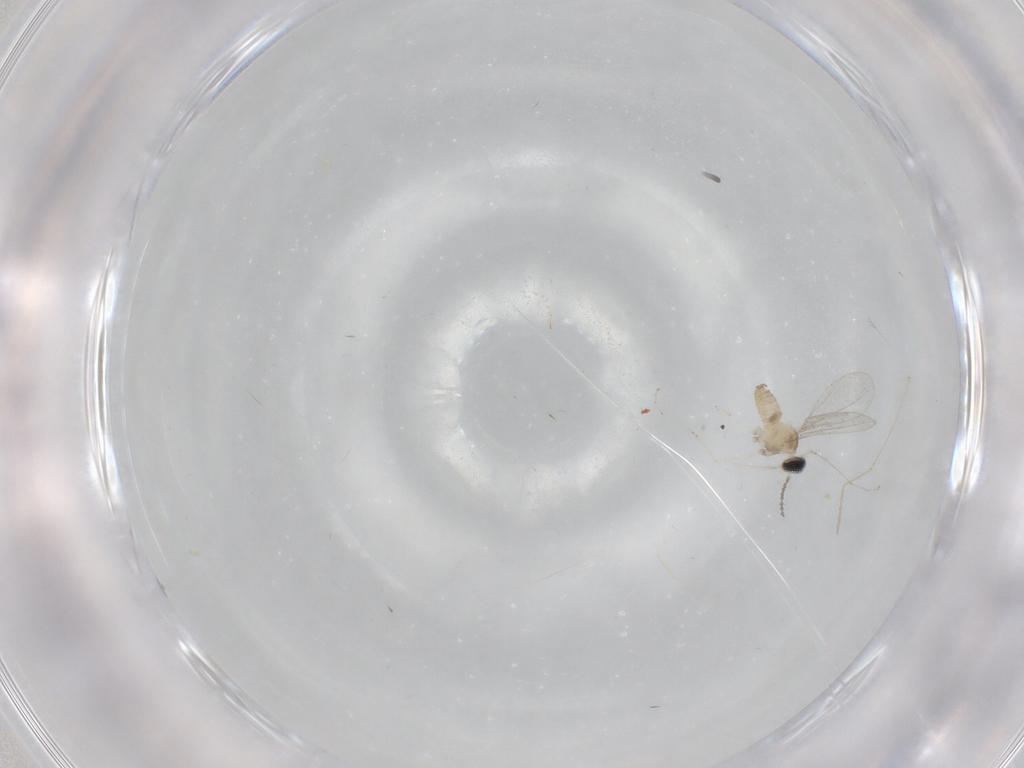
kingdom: Animalia
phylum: Arthropoda
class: Insecta
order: Diptera
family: Cecidomyiidae
